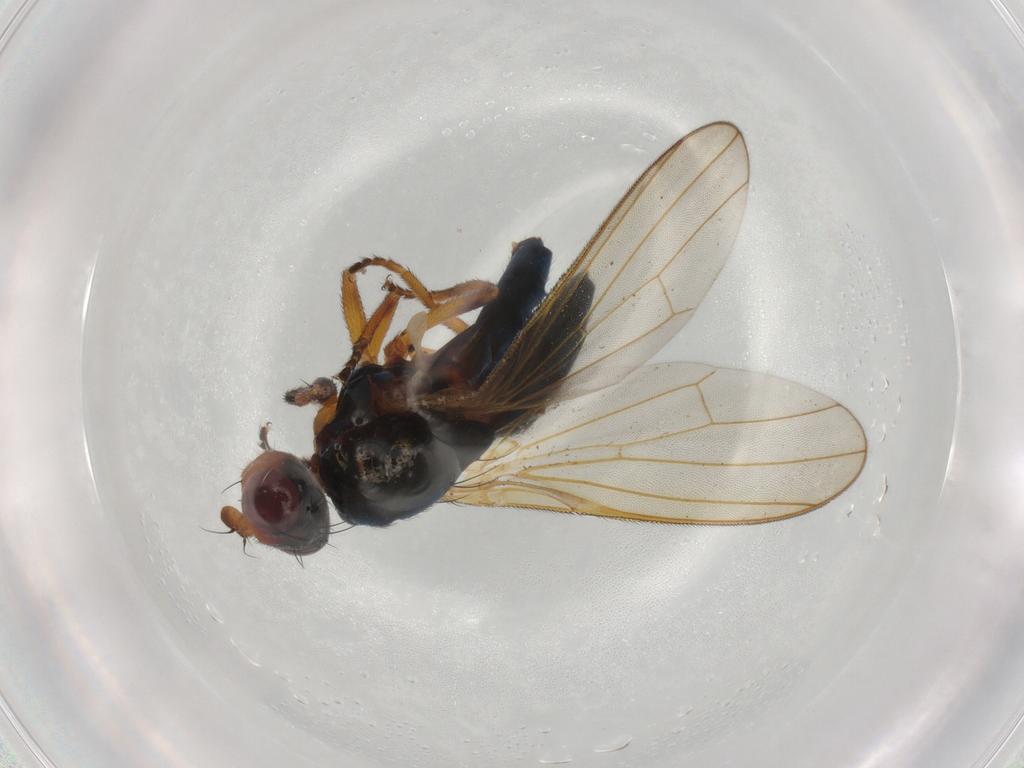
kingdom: Animalia
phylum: Arthropoda
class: Insecta
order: Diptera
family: Piophilidae
